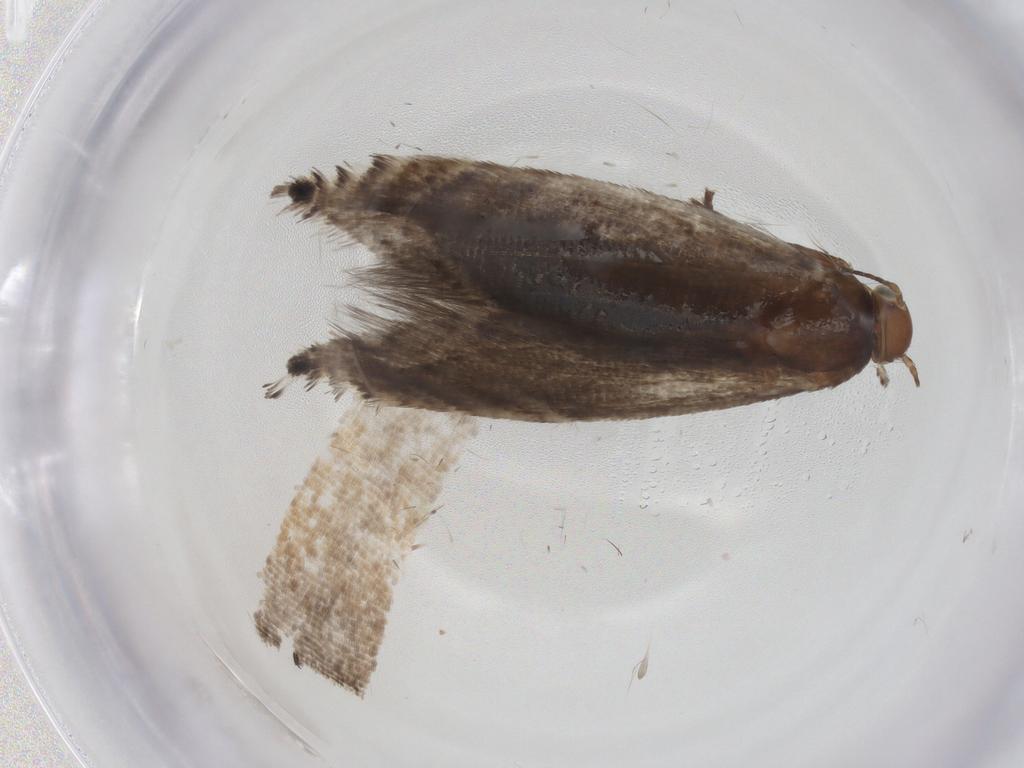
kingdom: Animalia
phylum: Arthropoda
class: Insecta
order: Lepidoptera
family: Glyphipterigidae
